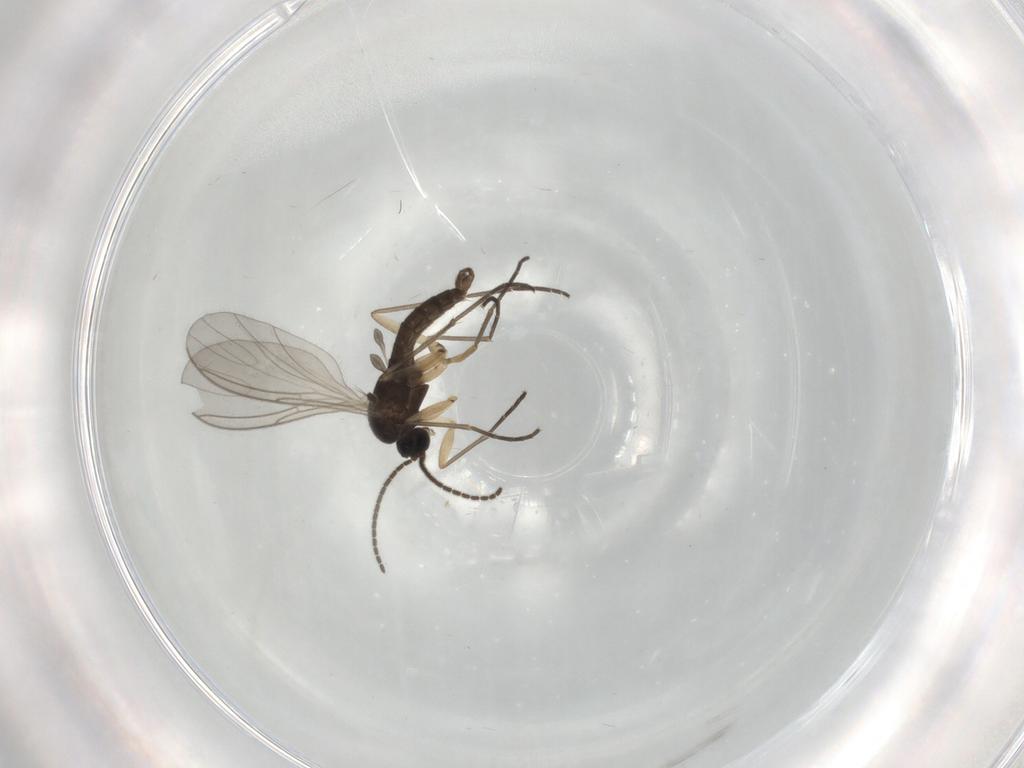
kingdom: Animalia
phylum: Arthropoda
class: Insecta
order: Diptera
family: Sciaridae
